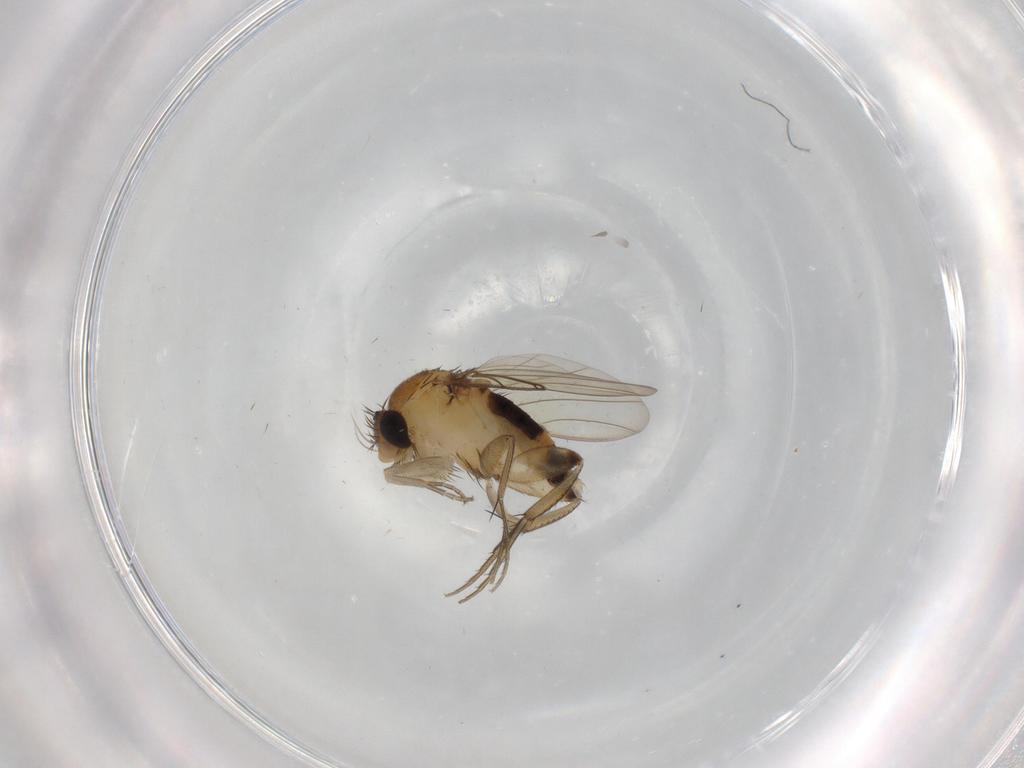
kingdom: Animalia
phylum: Arthropoda
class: Insecta
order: Diptera
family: Phoridae
